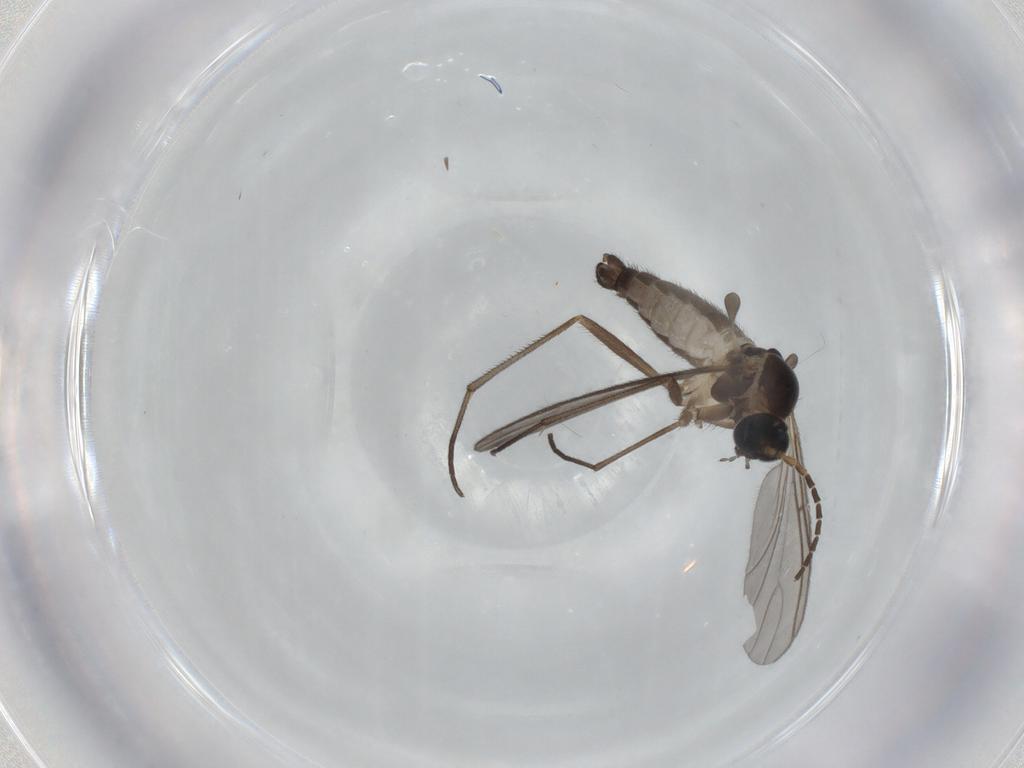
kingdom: Animalia
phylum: Arthropoda
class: Insecta
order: Diptera
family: Sciaridae
